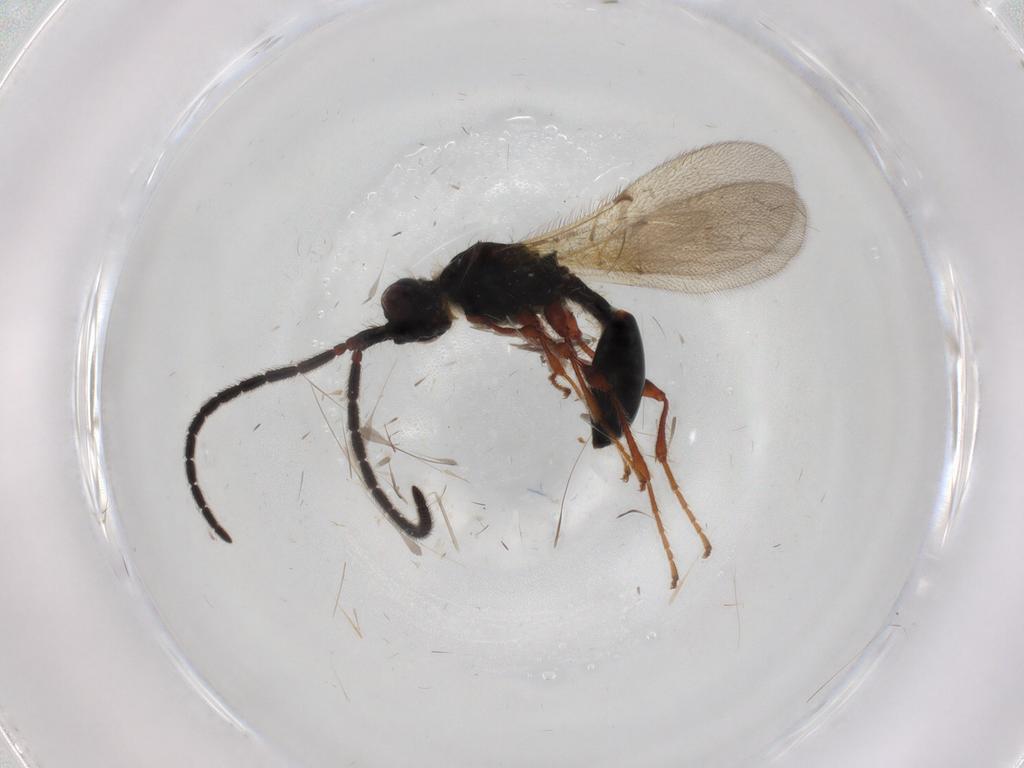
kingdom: Animalia
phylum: Arthropoda
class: Insecta
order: Hymenoptera
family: Diapriidae
